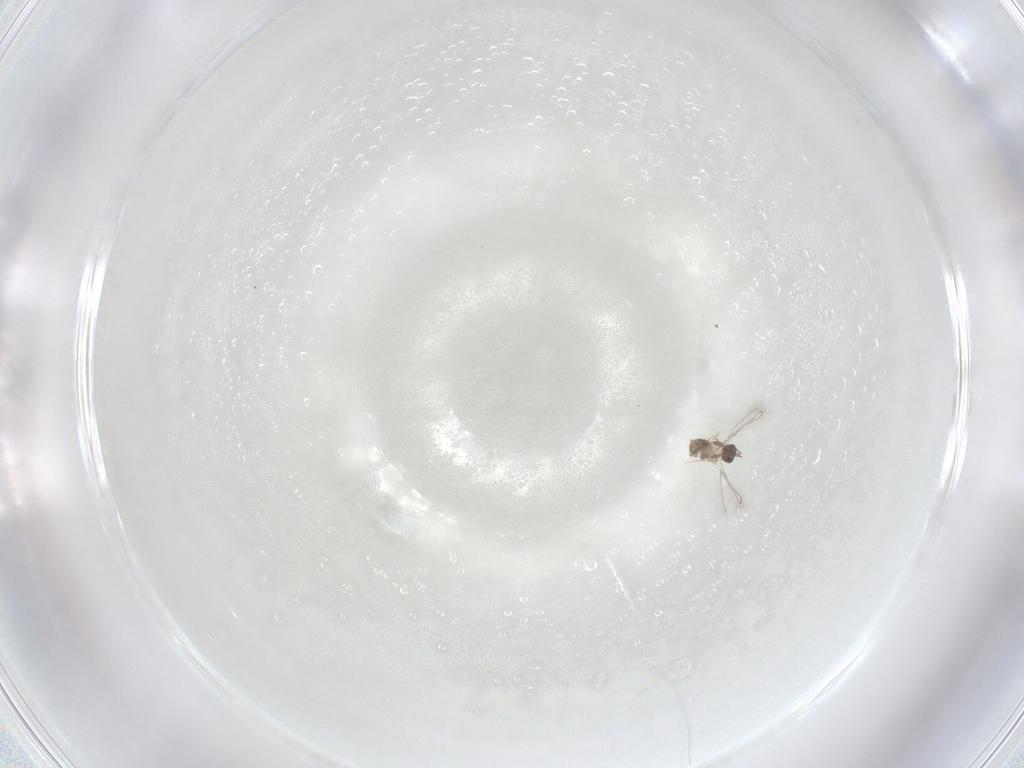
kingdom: Animalia
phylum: Arthropoda
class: Insecta
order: Hymenoptera
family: Mymaridae
